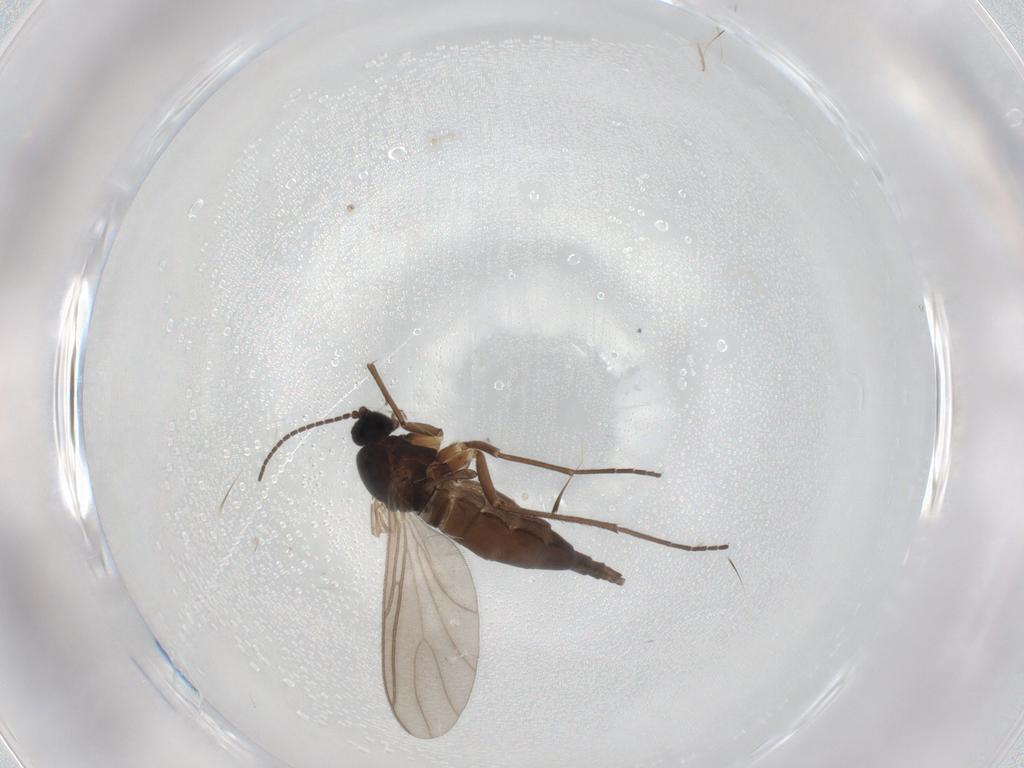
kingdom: Animalia
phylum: Arthropoda
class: Insecta
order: Diptera
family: Sciaridae
